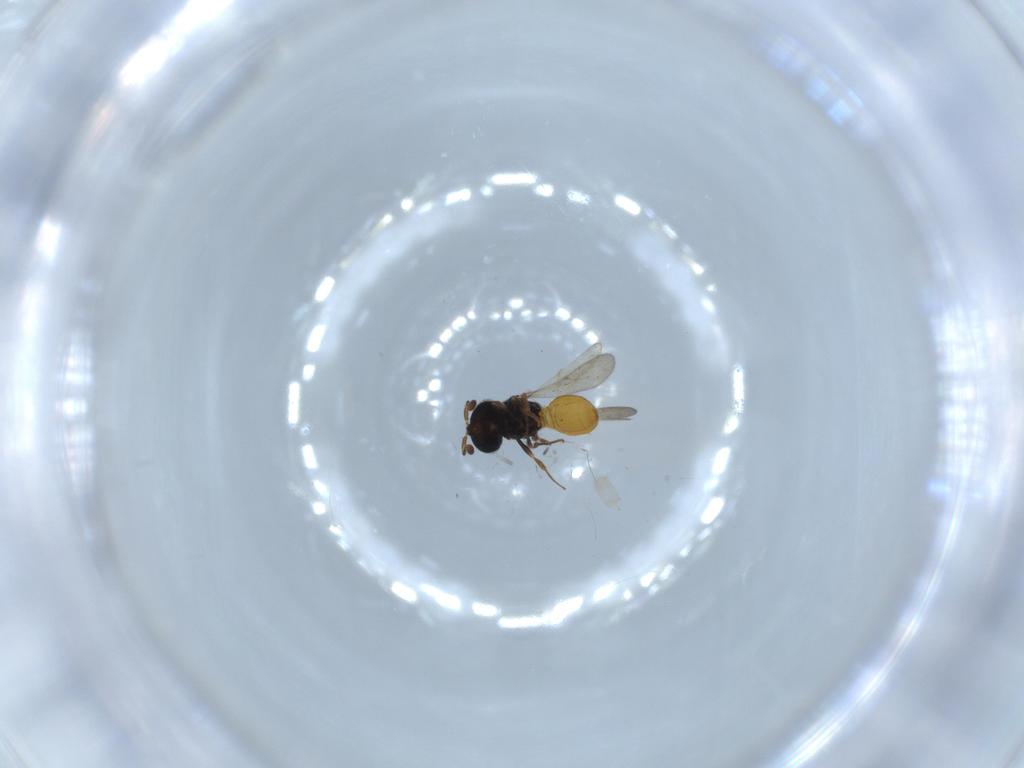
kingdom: Animalia
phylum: Arthropoda
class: Insecta
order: Hymenoptera
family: Scelionidae
